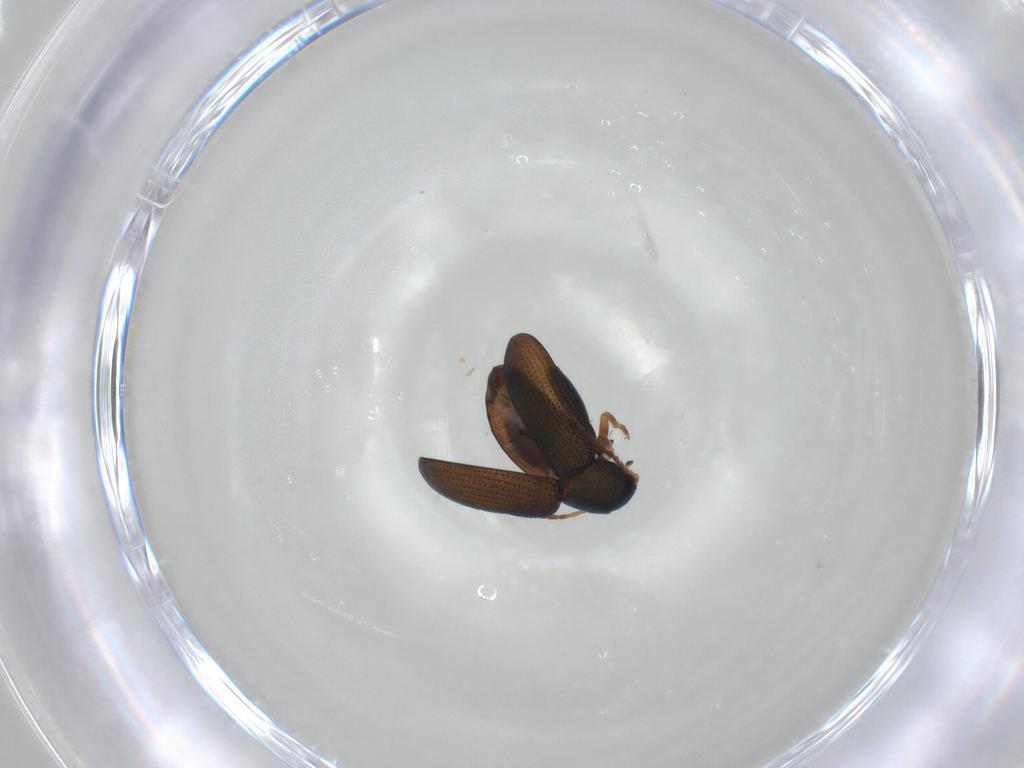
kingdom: Animalia
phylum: Arthropoda
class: Insecta
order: Coleoptera
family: Chrysomelidae
